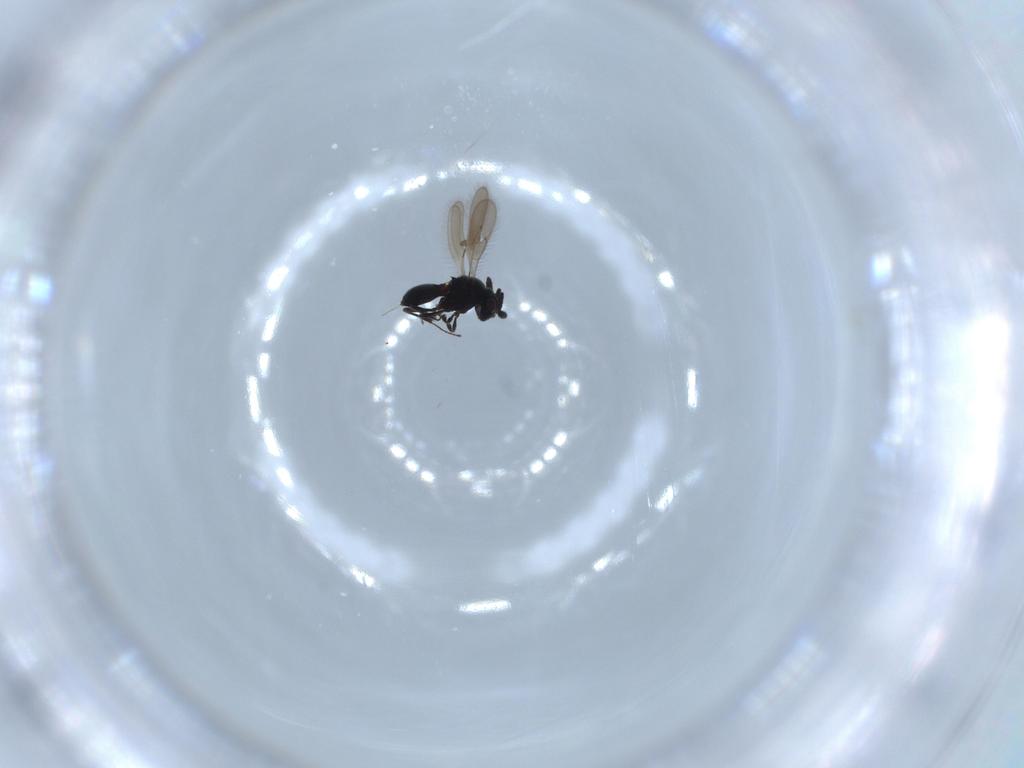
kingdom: Animalia
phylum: Arthropoda
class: Insecta
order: Hymenoptera
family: Scelionidae
